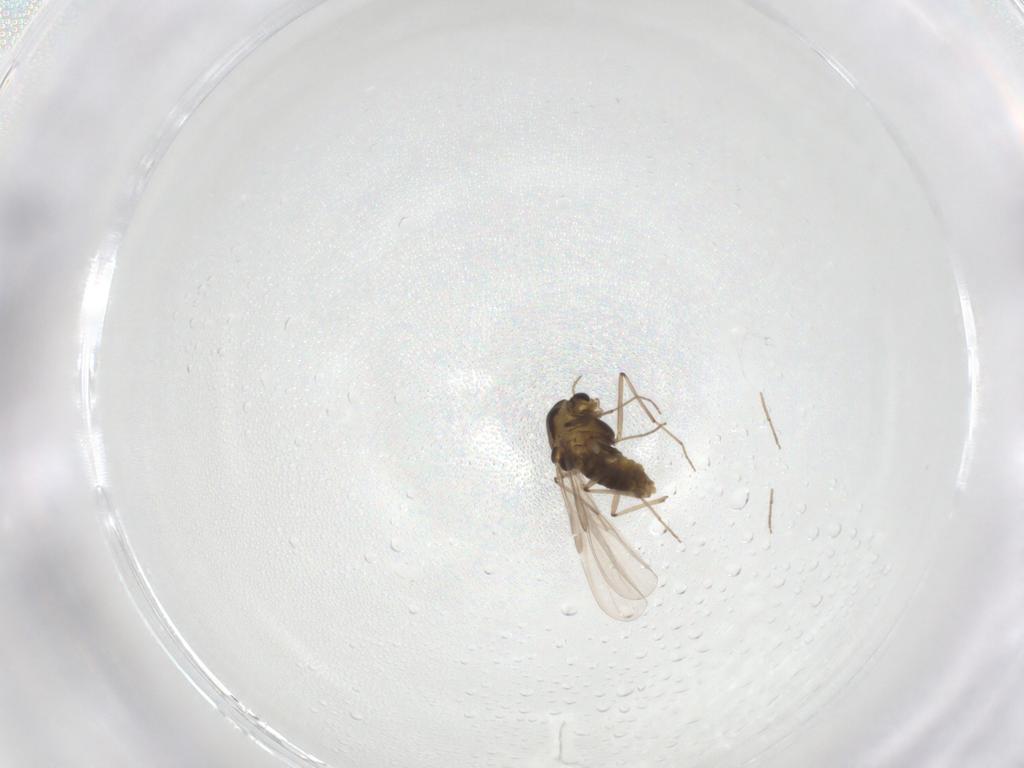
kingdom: Animalia
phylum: Arthropoda
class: Insecta
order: Diptera
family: Chironomidae
